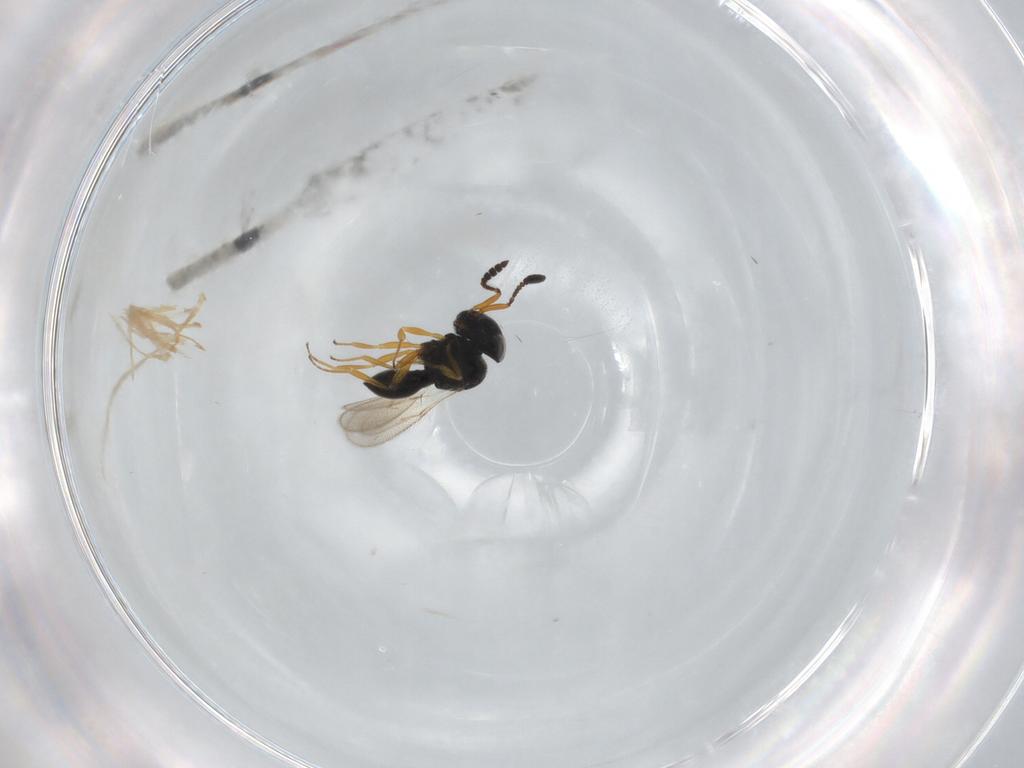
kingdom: Animalia
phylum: Arthropoda
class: Insecta
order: Hymenoptera
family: Scelionidae
